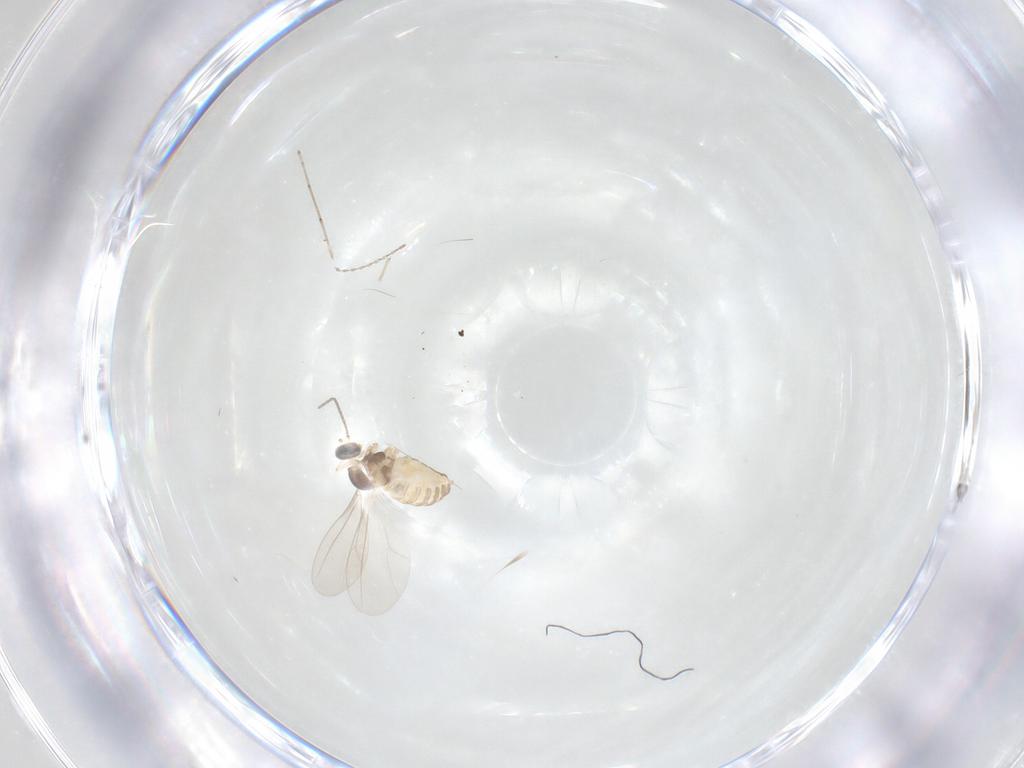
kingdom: Animalia
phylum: Arthropoda
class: Insecta
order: Diptera
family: Cecidomyiidae
